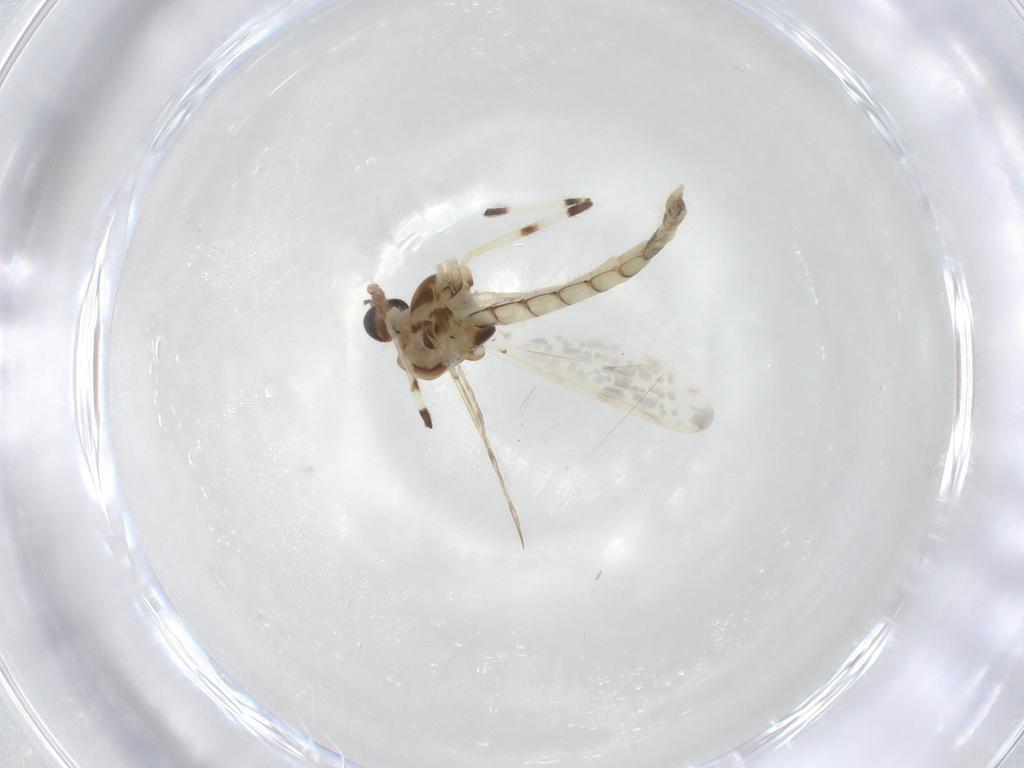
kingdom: Animalia
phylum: Arthropoda
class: Insecta
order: Diptera
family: Chironomidae
